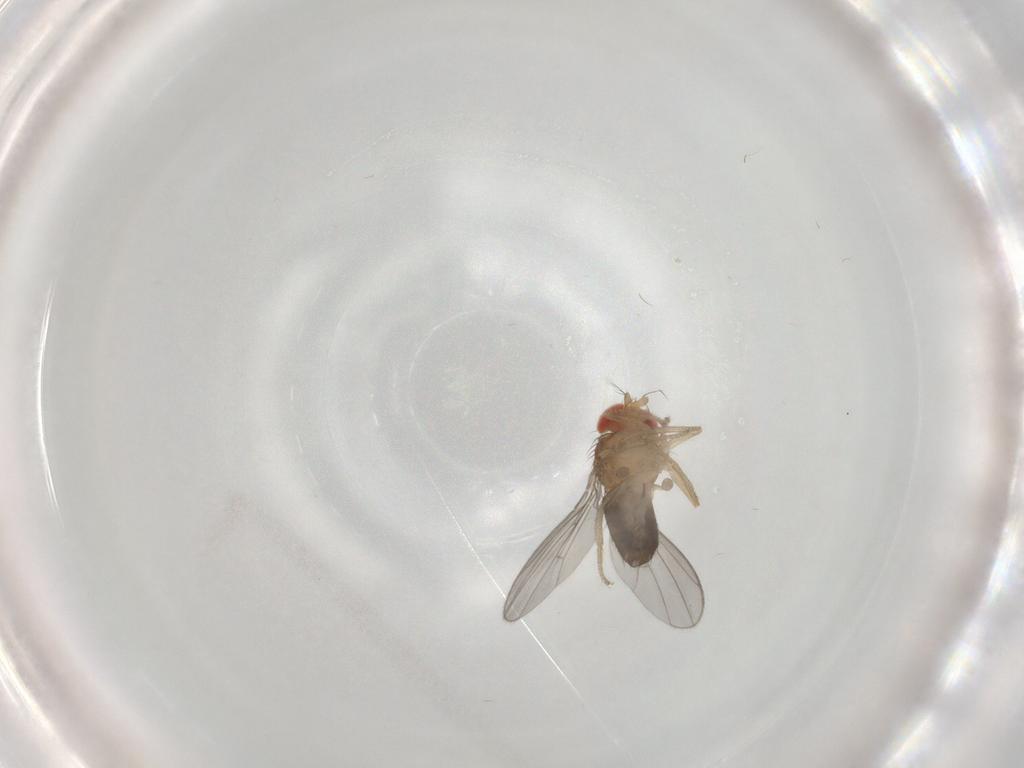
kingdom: Animalia
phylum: Arthropoda
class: Insecta
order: Diptera
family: Drosophilidae
